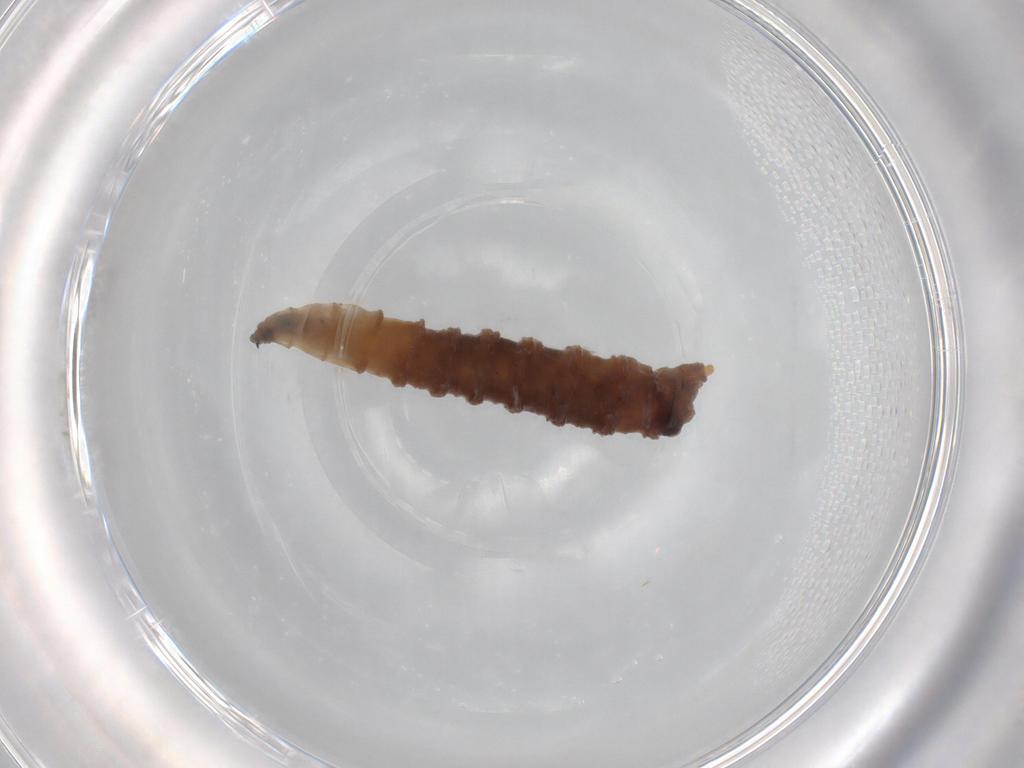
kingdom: Animalia
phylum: Arthropoda
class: Insecta
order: Diptera
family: Drosophilidae
